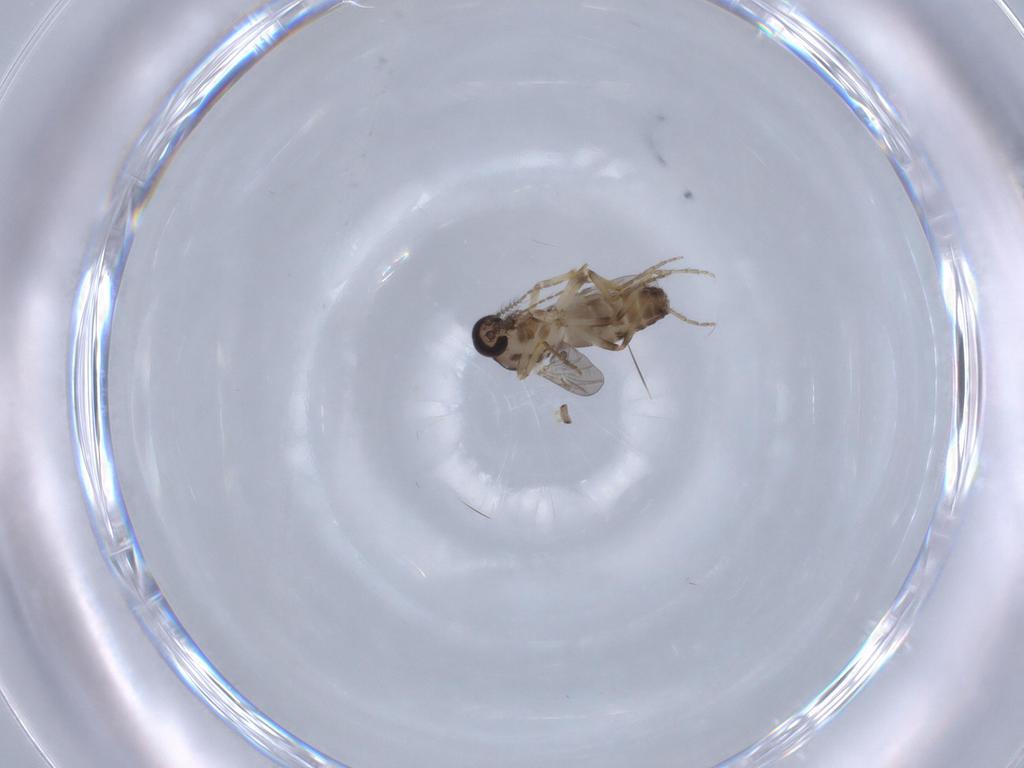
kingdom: Animalia
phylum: Arthropoda
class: Insecta
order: Diptera
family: Ceratopogonidae
